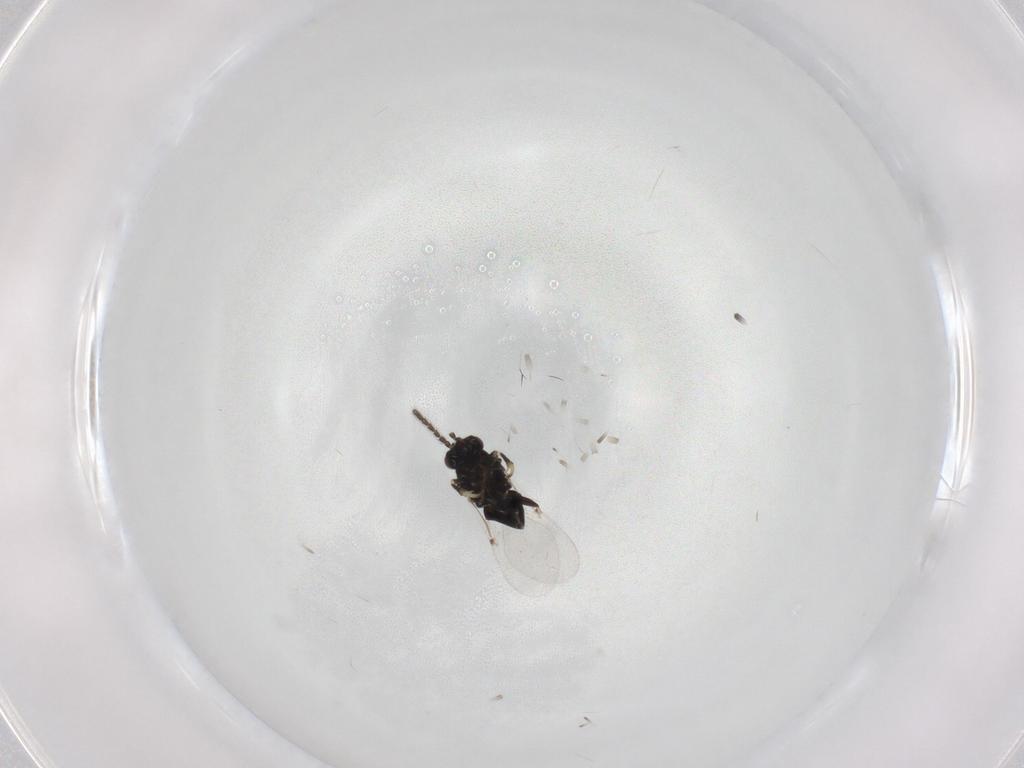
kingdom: Animalia
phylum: Arthropoda
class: Insecta
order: Hymenoptera
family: Encyrtidae
